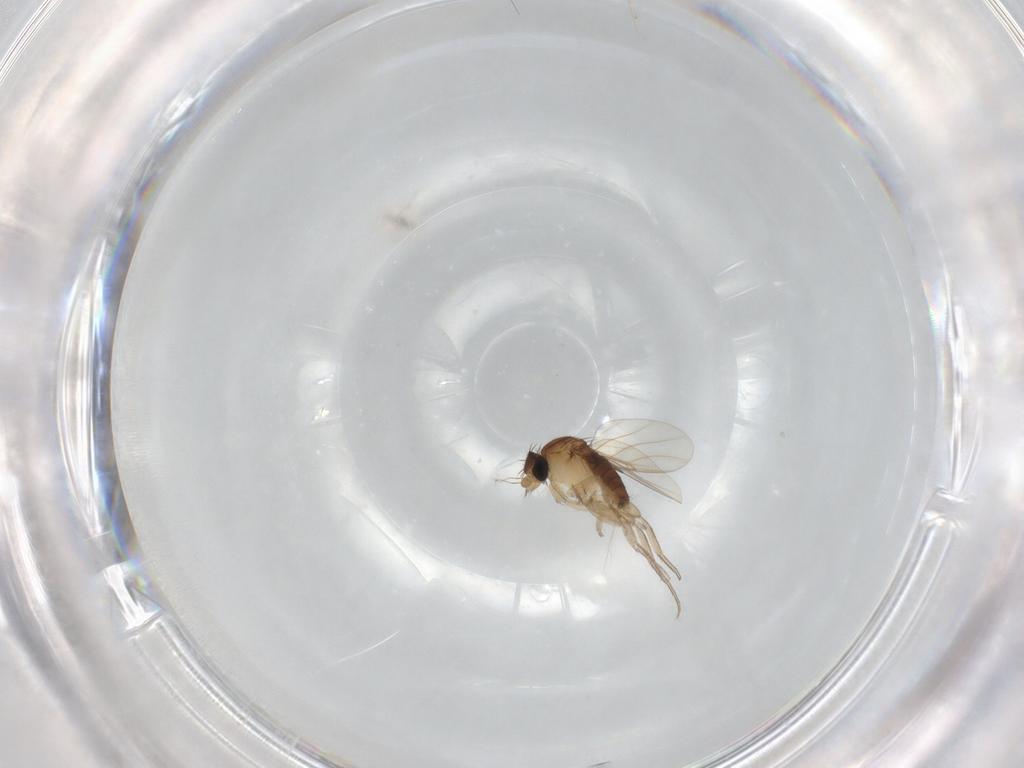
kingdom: Animalia
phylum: Arthropoda
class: Insecta
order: Diptera
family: Phoridae
